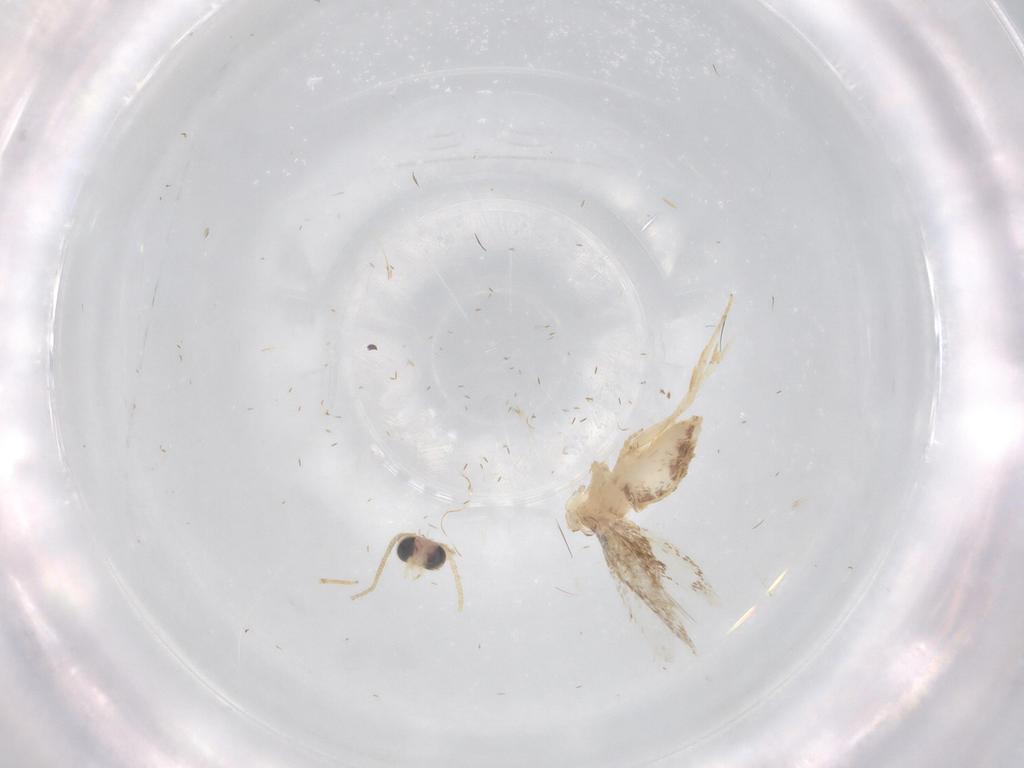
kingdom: Animalia
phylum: Arthropoda
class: Insecta
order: Lepidoptera
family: Nepticulidae
